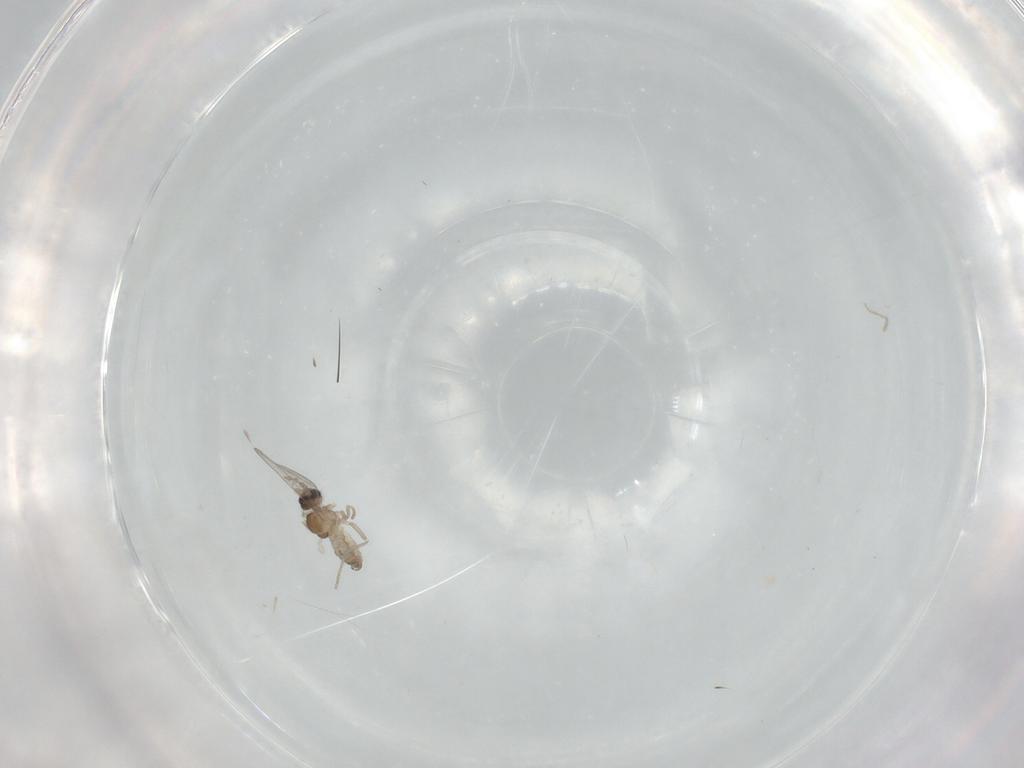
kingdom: Animalia
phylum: Arthropoda
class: Insecta
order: Diptera
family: Cecidomyiidae
